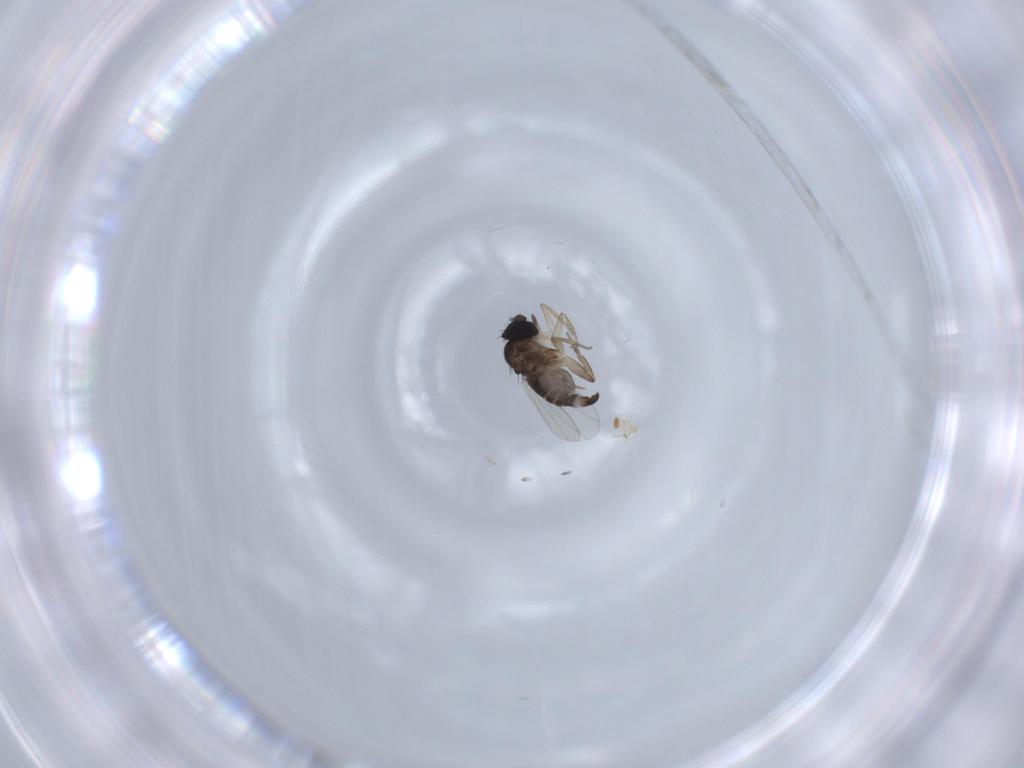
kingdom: Animalia
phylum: Arthropoda
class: Insecta
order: Diptera
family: Phoridae
